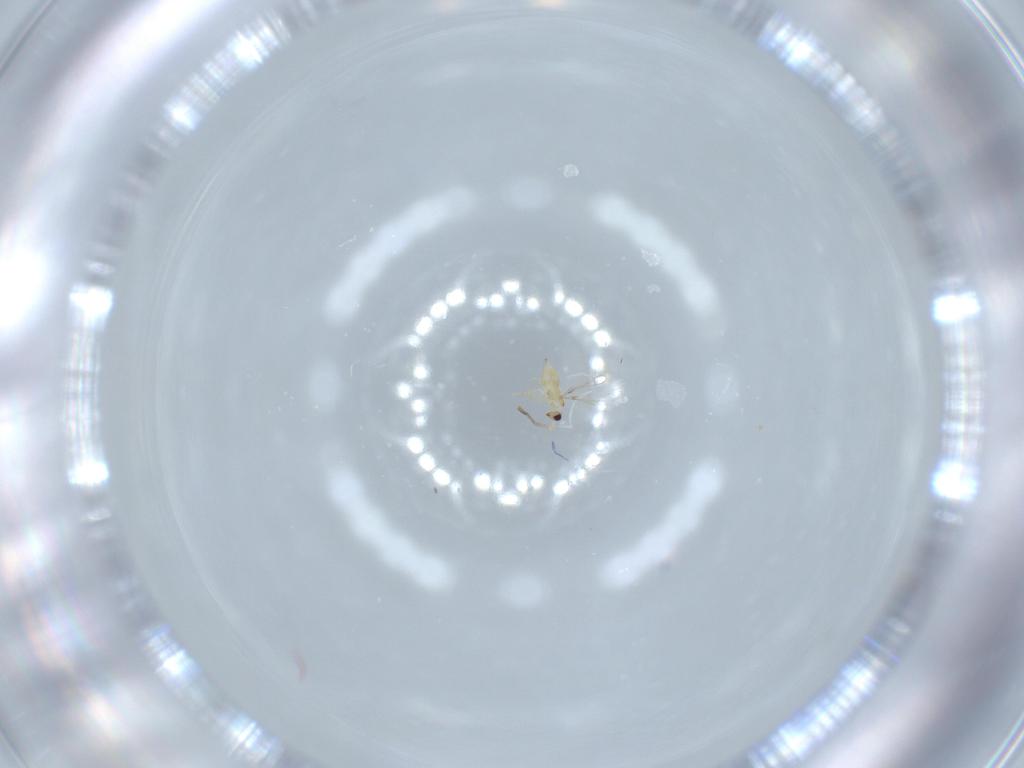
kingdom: Animalia
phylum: Arthropoda
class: Insecta
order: Hymenoptera
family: Mymaridae
